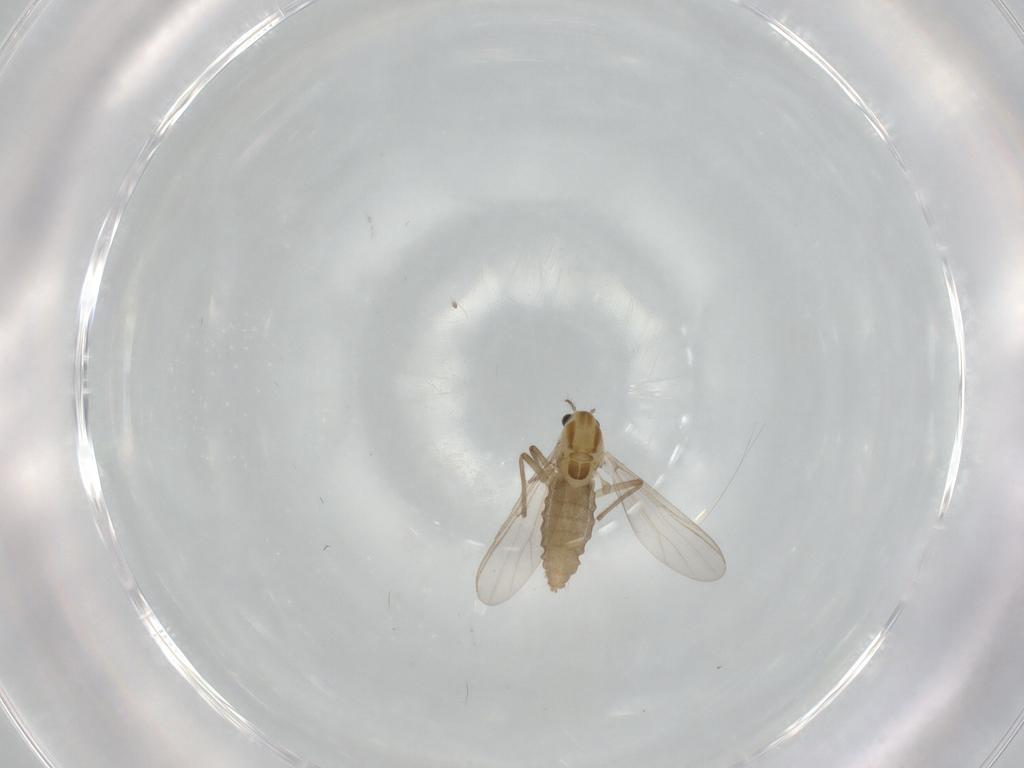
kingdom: Animalia
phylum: Arthropoda
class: Insecta
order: Diptera
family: Chironomidae
